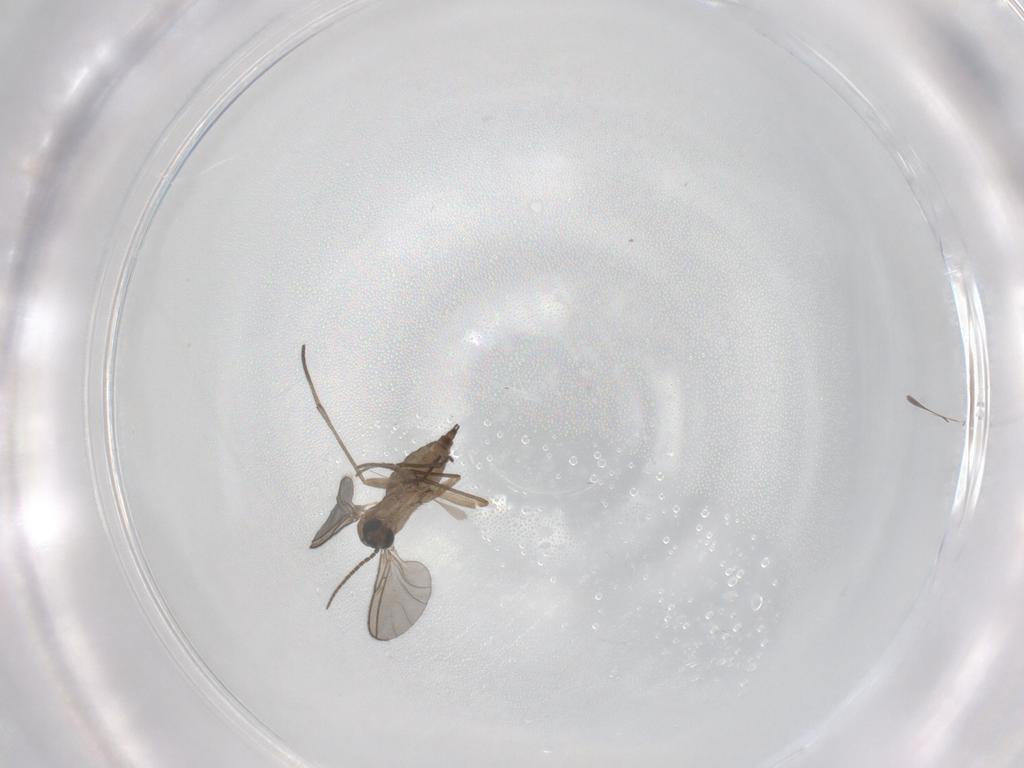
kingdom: Animalia
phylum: Arthropoda
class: Insecta
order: Diptera
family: Sciaridae
